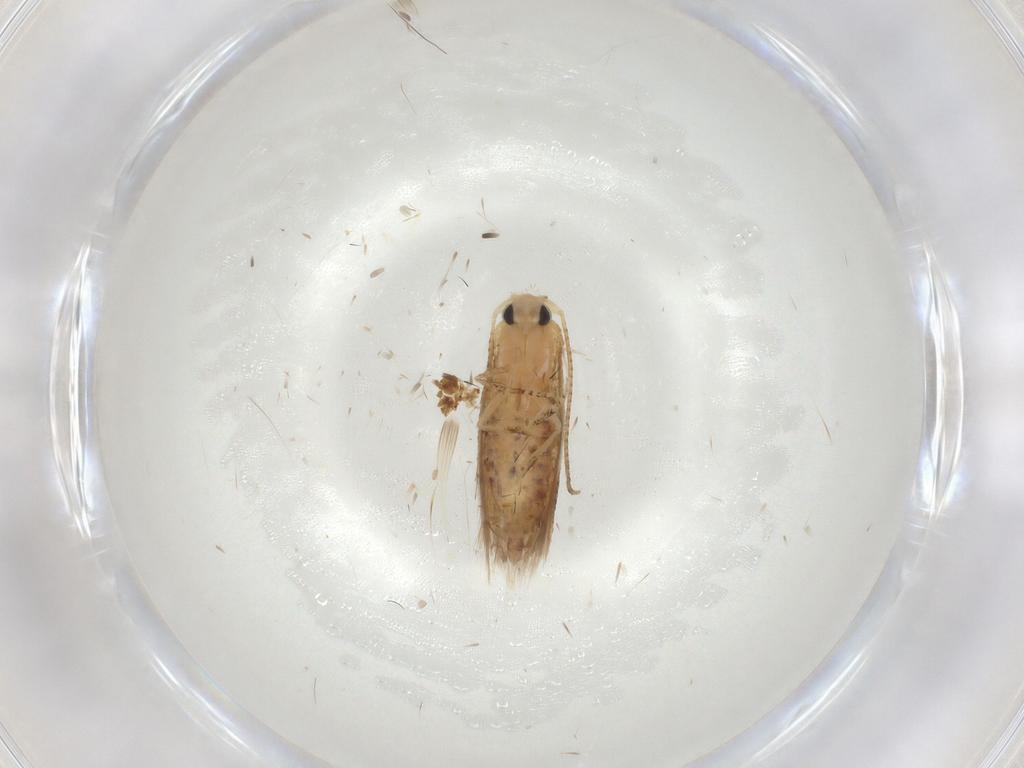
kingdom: Animalia
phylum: Arthropoda
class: Insecta
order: Lepidoptera
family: Bucculatricidae
